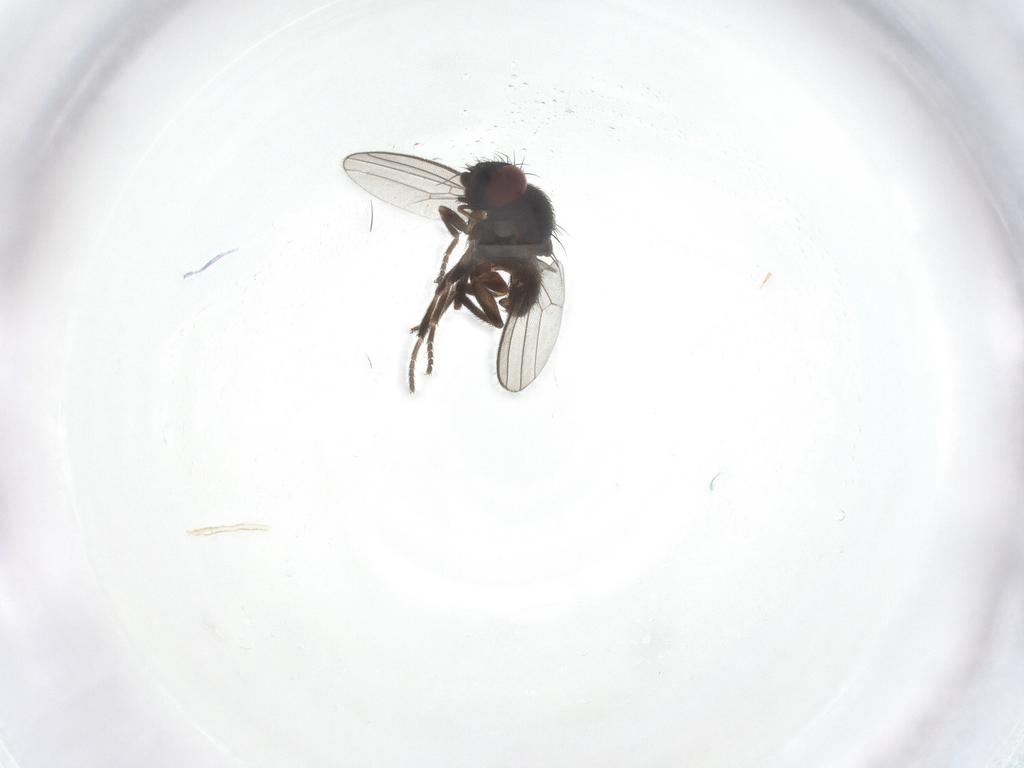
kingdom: Animalia
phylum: Arthropoda
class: Insecta
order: Diptera
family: Milichiidae
